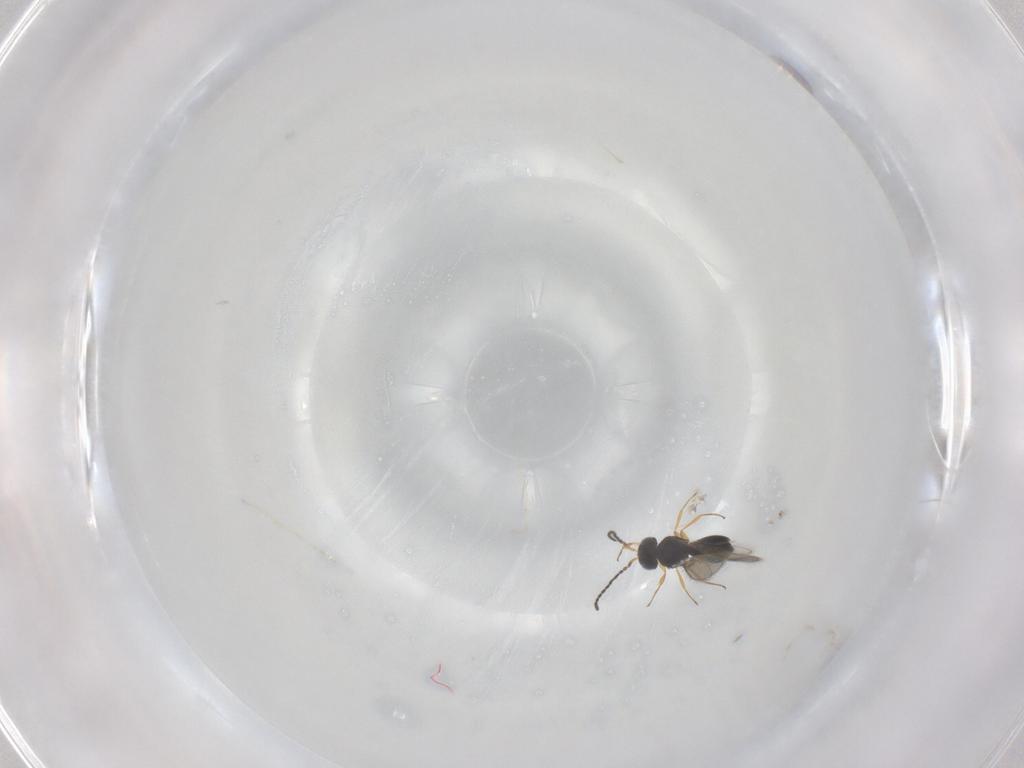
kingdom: Animalia
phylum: Arthropoda
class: Insecta
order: Hymenoptera
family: Scelionidae
